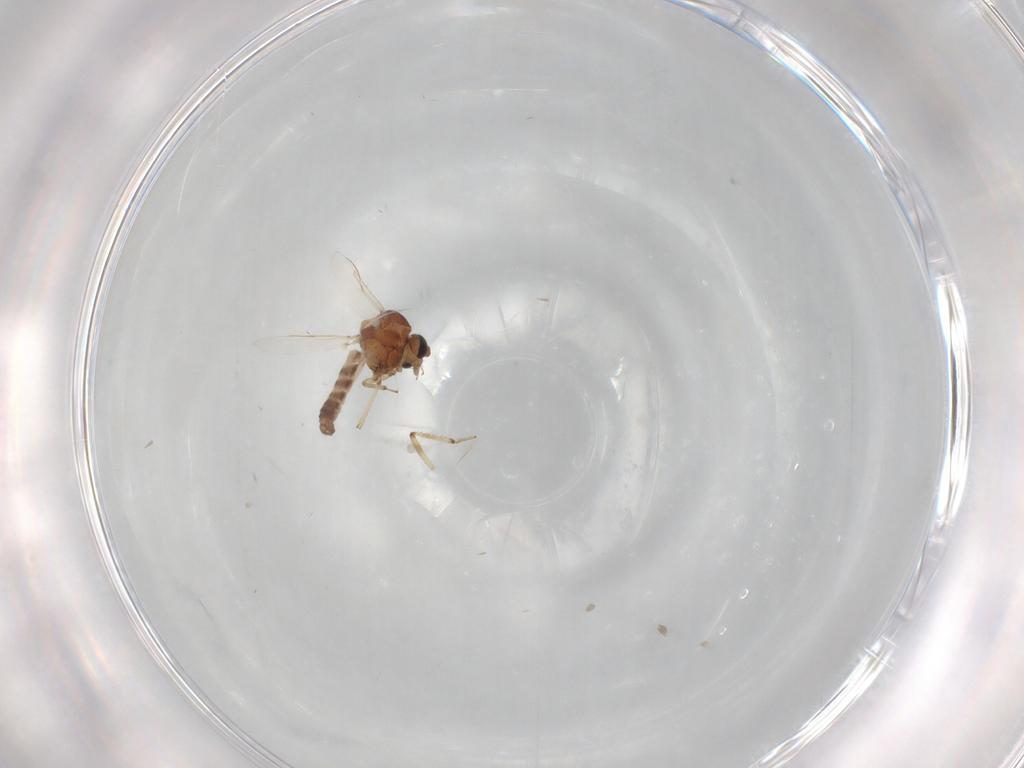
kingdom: Animalia
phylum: Arthropoda
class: Insecta
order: Diptera
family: Ceratopogonidae
